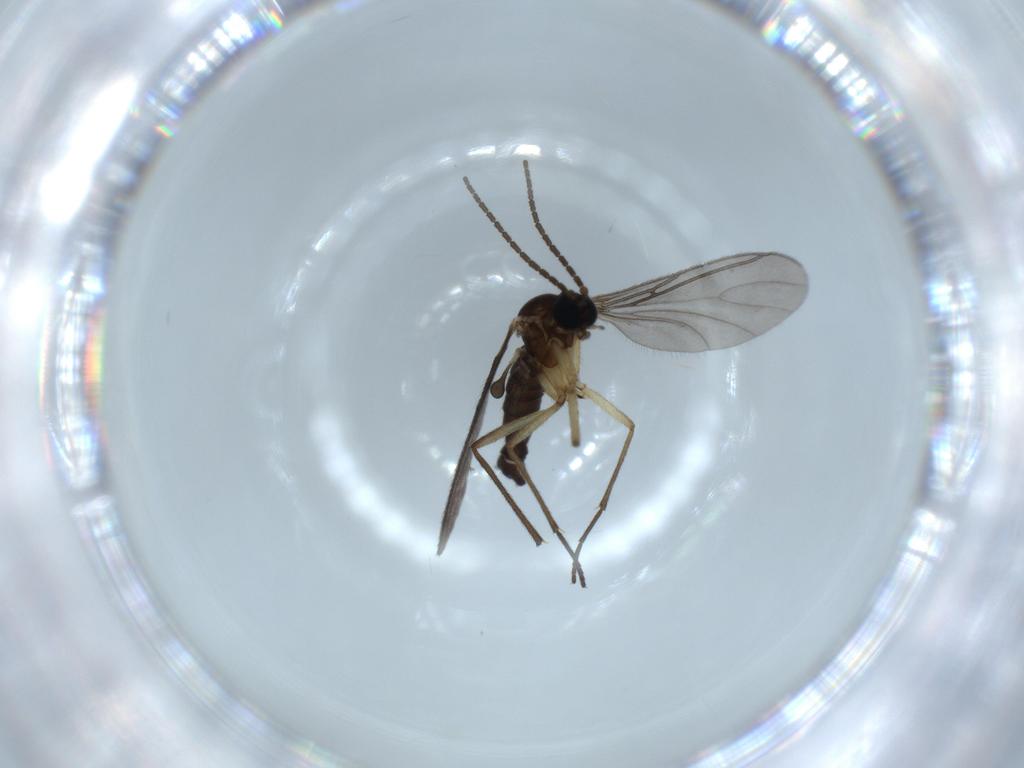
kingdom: Animalia
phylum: Arthropoda
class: Insecta
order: Diptera
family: Sciaridae
